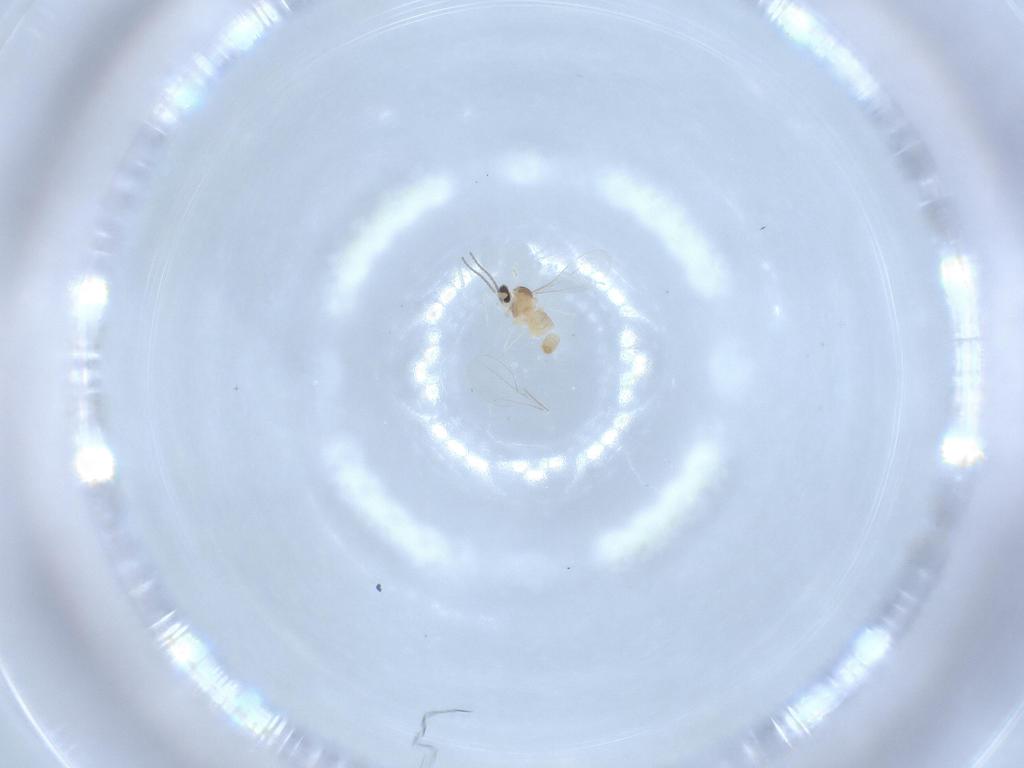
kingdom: Animalia
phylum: Arthropoda
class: Insecta
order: Diptera
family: Cecidomyiidae
